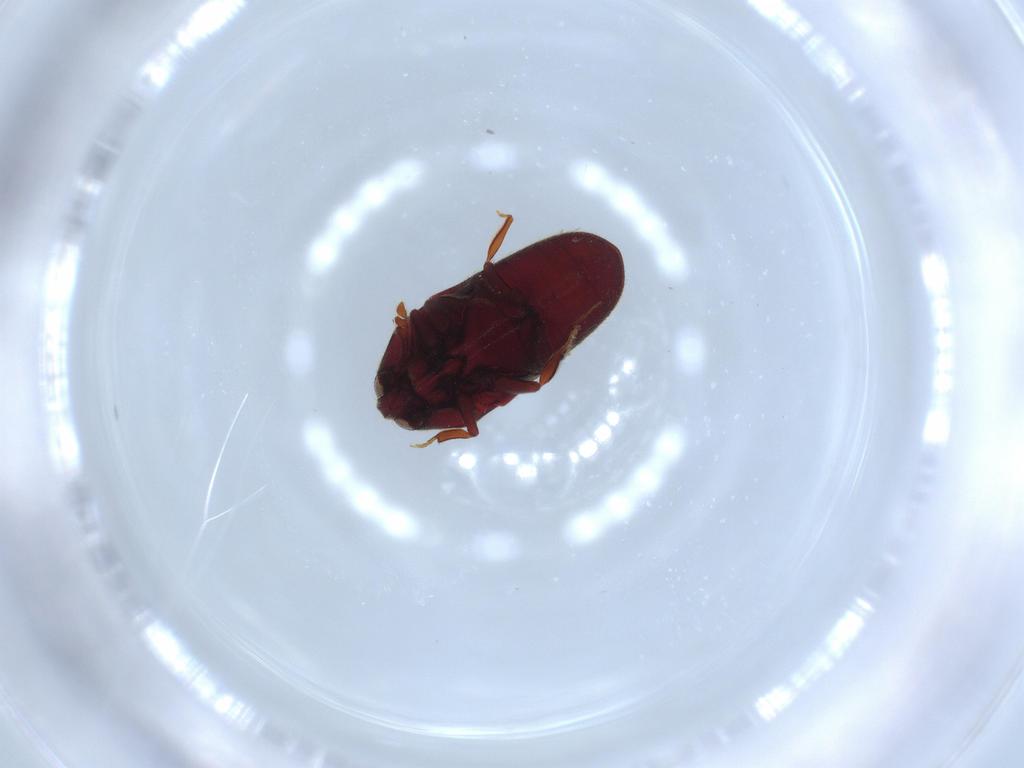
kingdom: Animalia
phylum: Arthropoda
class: Insecta
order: Coleoptera
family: Throscidae
